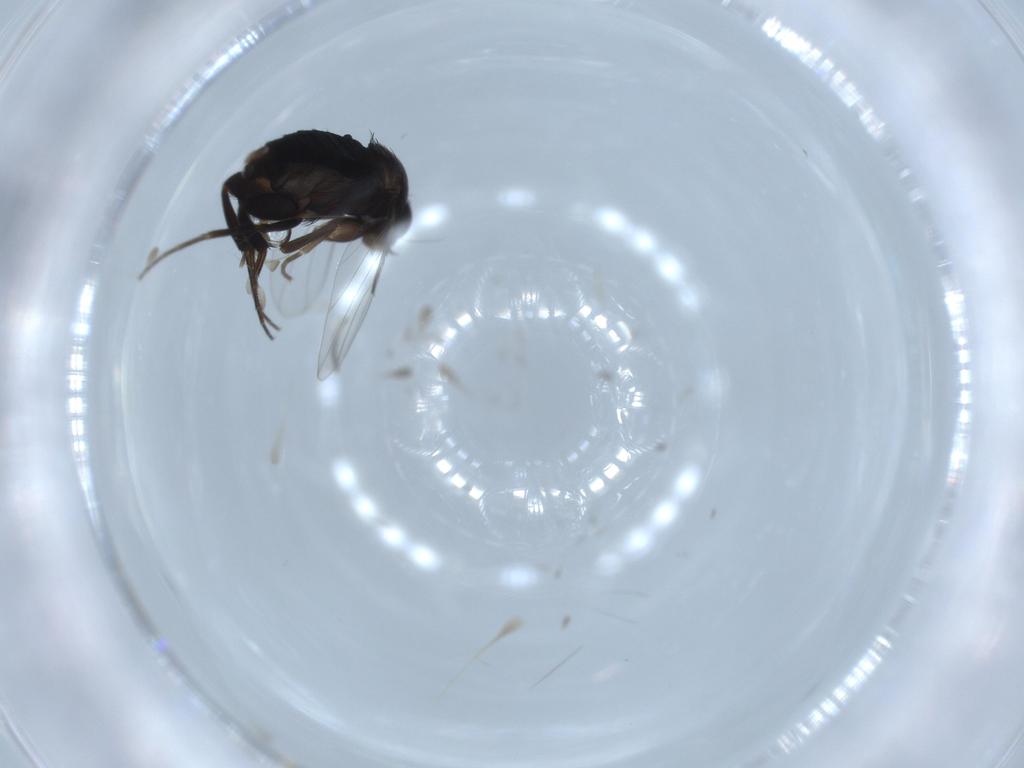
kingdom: Animalia
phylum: Arthropoda
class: Insecta
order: Diptera
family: Phoridae
